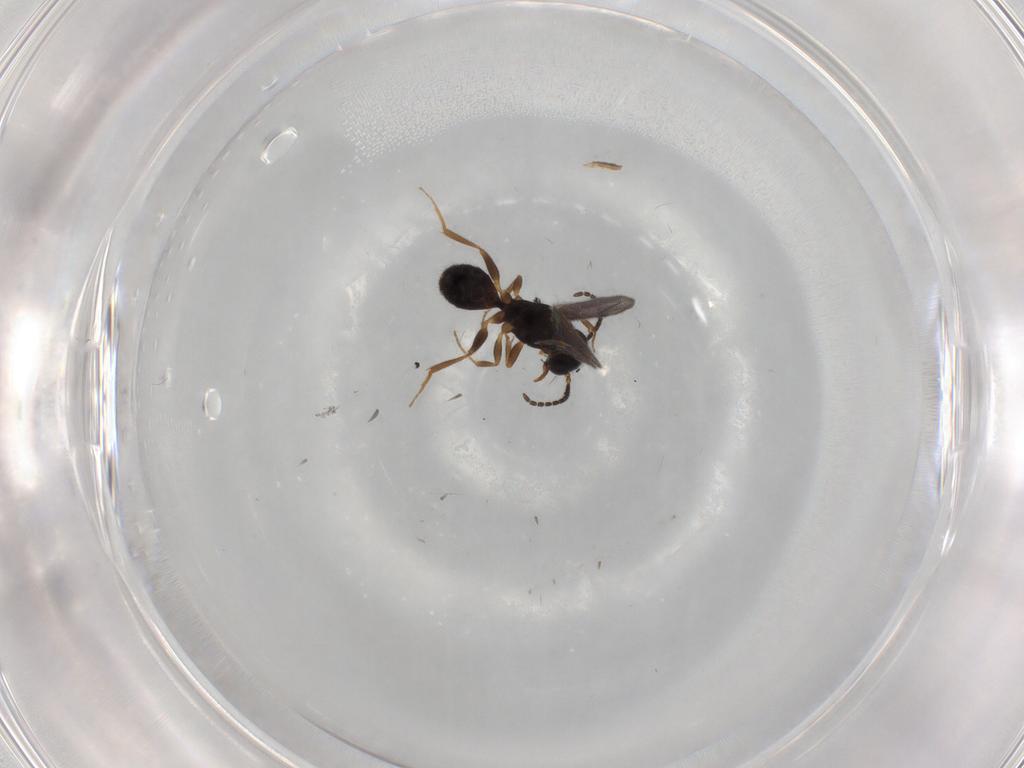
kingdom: Animalia
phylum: Arthropoda
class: Insecta
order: Hymenoptera
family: Bethylidae
